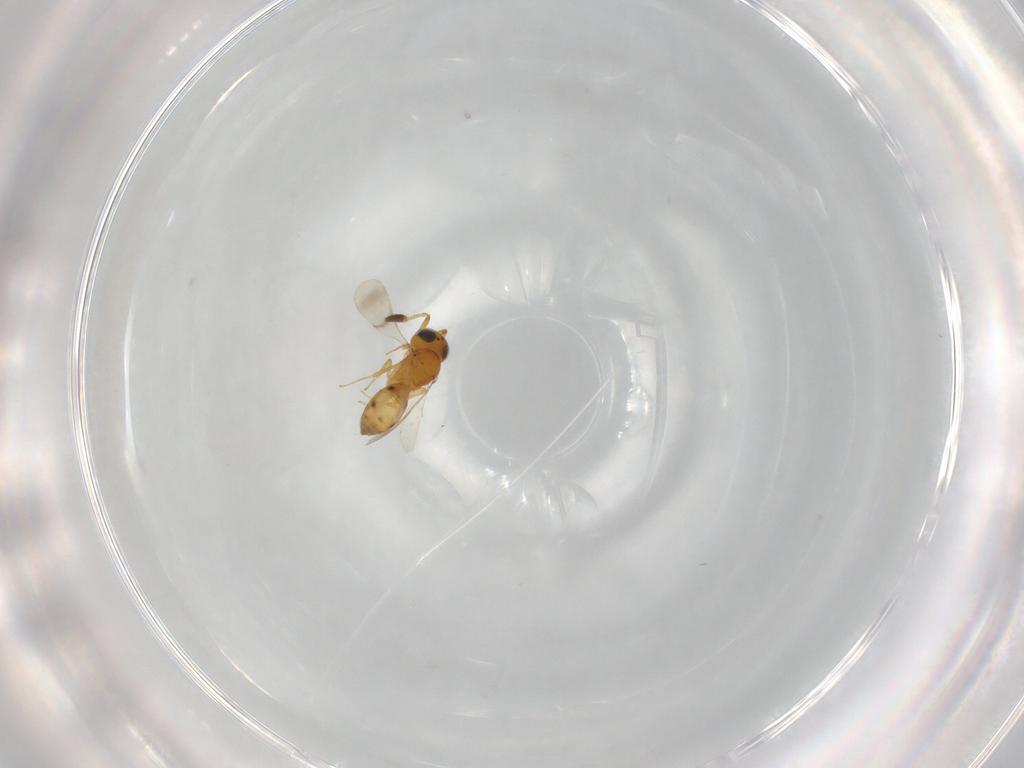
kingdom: Animalia
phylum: Arthropoda
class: Insecta
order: Hymenoptera
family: Scelionidae
